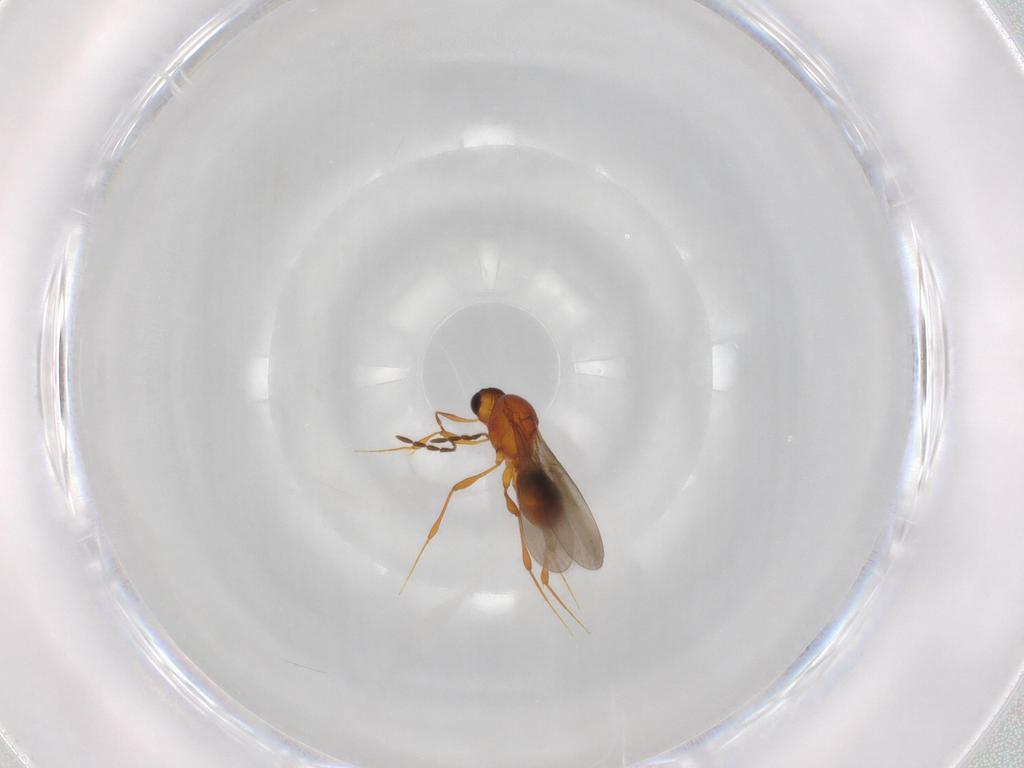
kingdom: Animalia
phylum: Arthropoda
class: Insecta
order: Hymenoptera
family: Platygastridae
